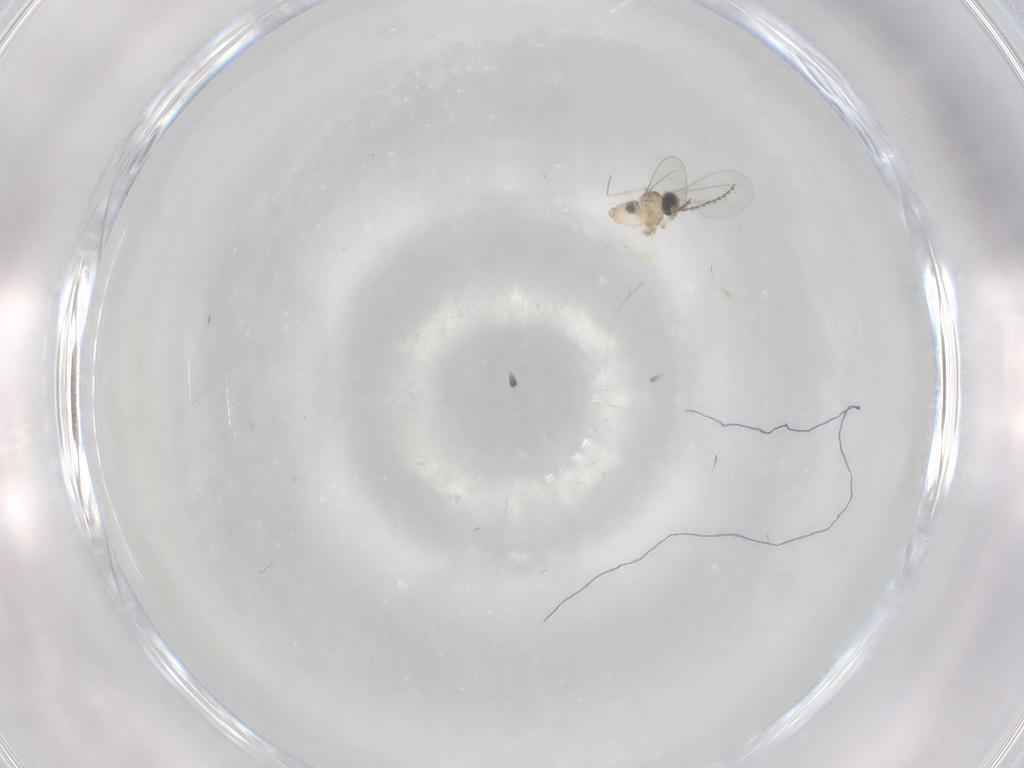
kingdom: Animalia
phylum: Arthropoda
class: Insecta
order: Diptera
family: Cecidomyiidae
